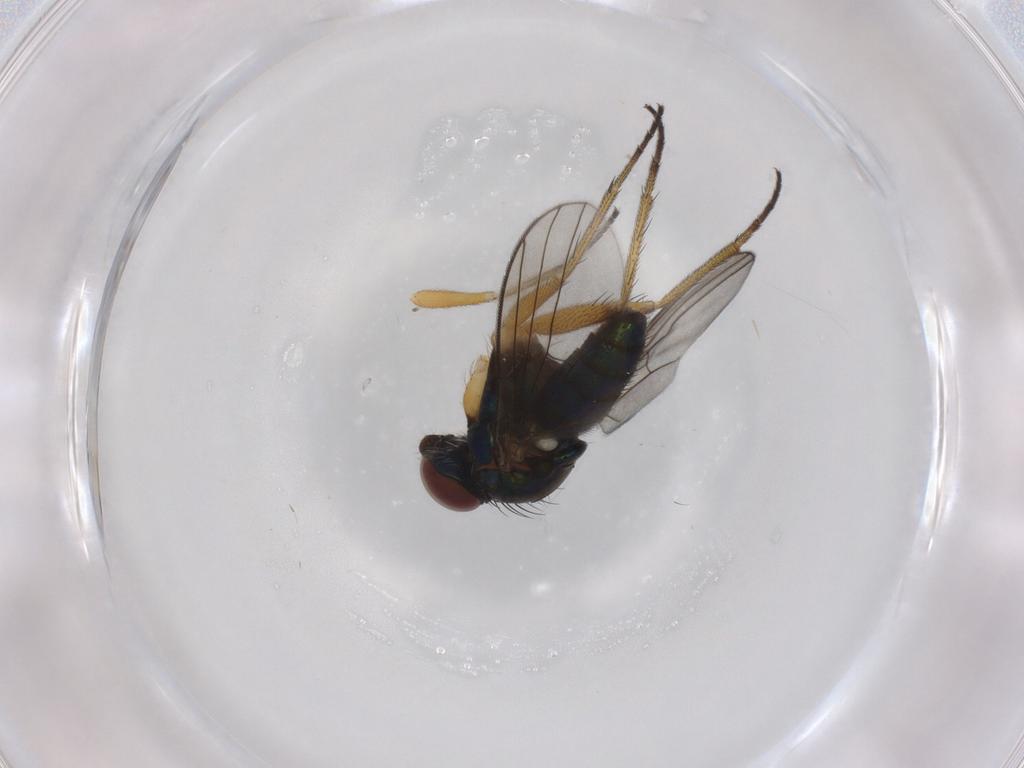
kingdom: Animalia
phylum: Arthropoda
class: Insecta
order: Diptera
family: Dolichopodidae
